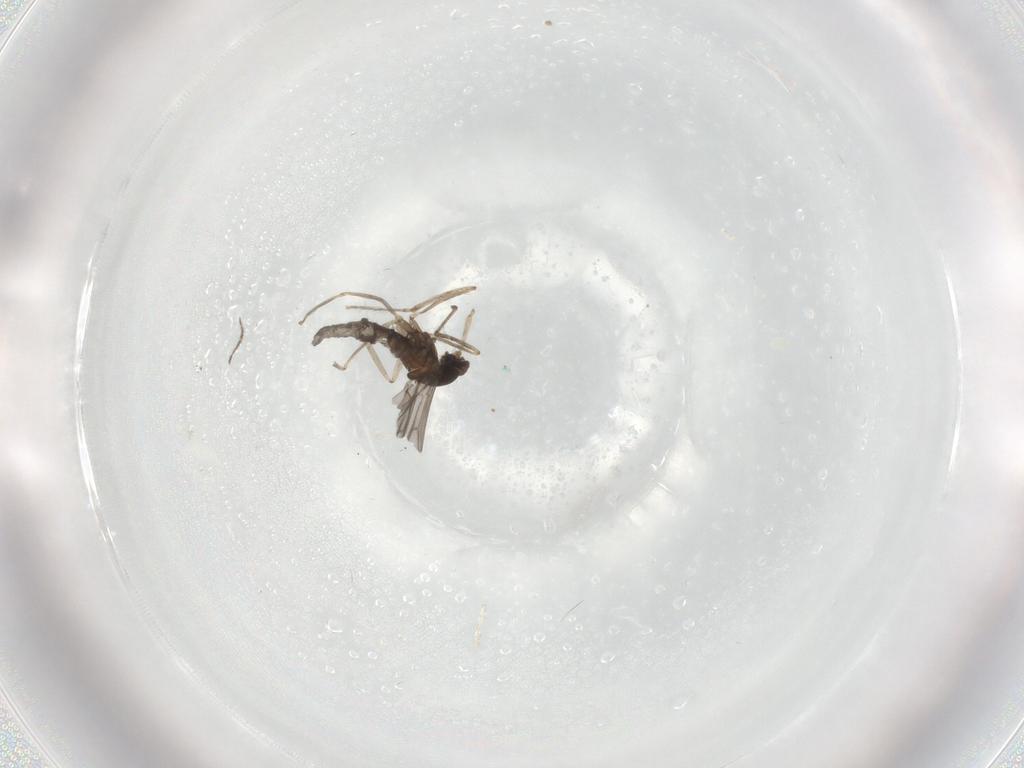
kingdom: Animalia
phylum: Arthropoda
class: Insecta
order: Diptera
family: Cecidomyiidae
